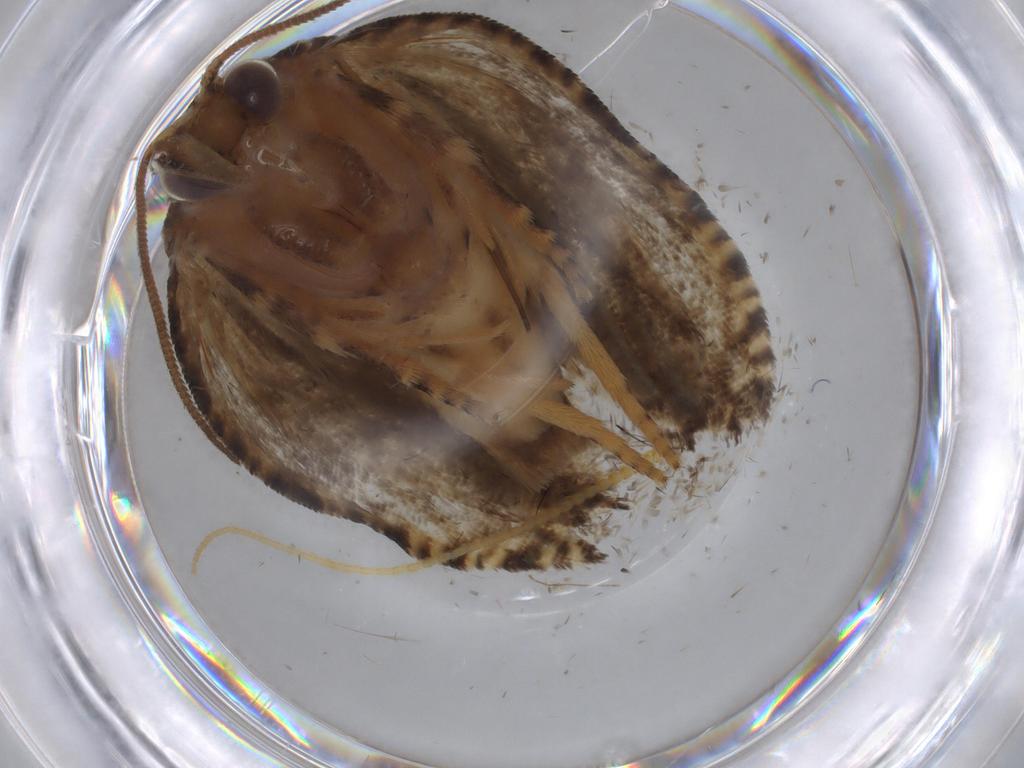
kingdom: Animalia
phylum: Arthropoda
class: Insecta
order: Lepidoptera
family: Tortricidae
